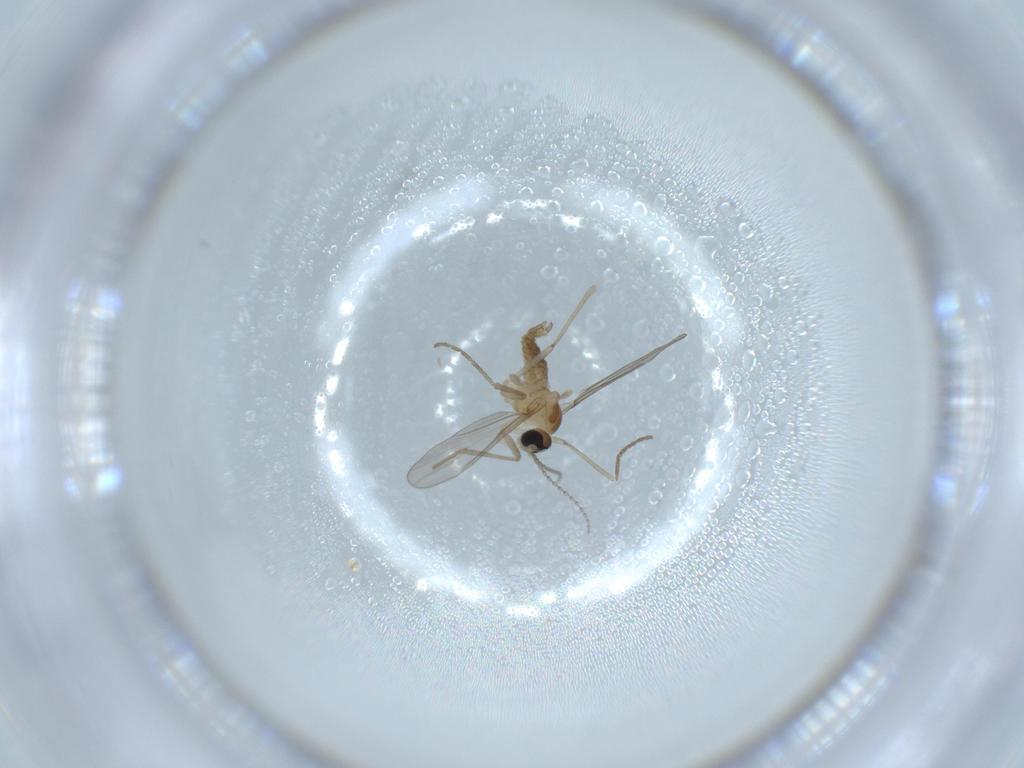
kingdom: Animalia
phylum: Arthropoda
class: Insecta
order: Diptera
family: Cecidomyiidae
